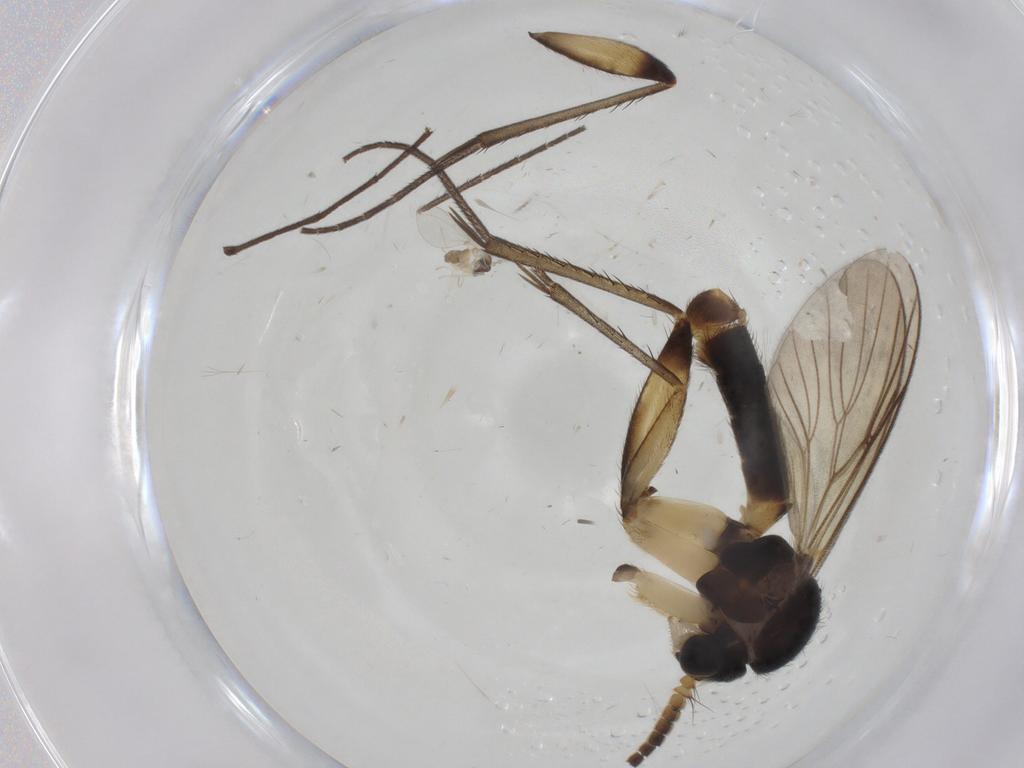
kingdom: Animalia
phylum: Arthropoda
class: Insecta
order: Diptera
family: Mycetophilidae
